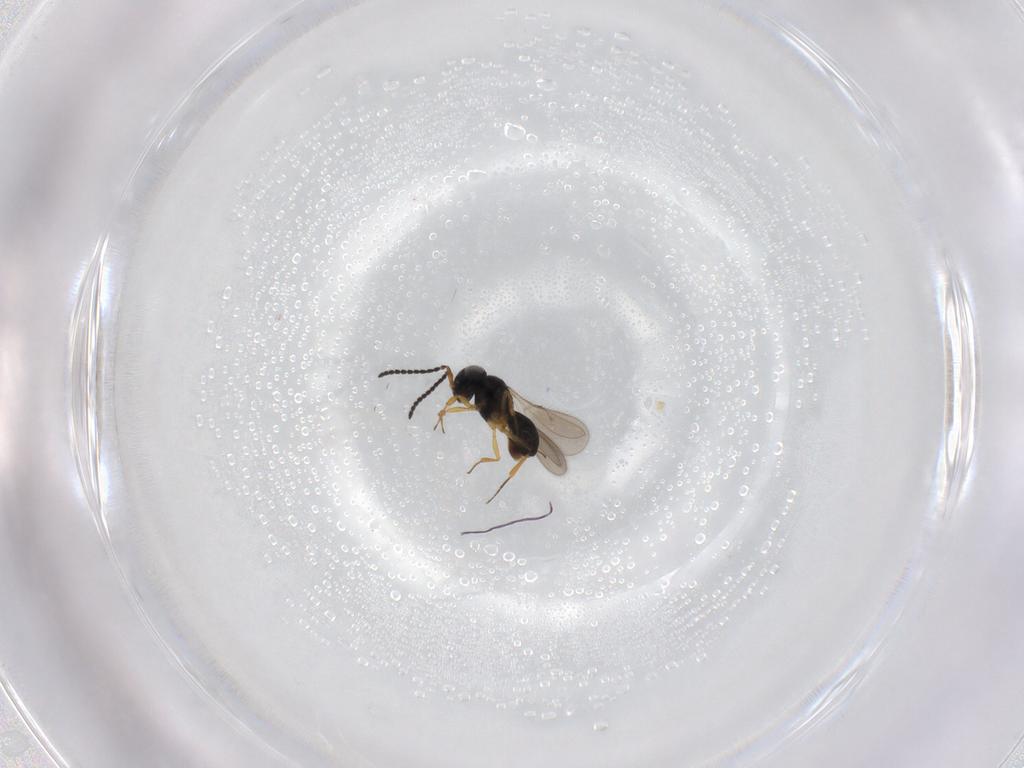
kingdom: Animalia
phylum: Arthropoda
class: Insecta
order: Hymenoptera
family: Scelionidae
